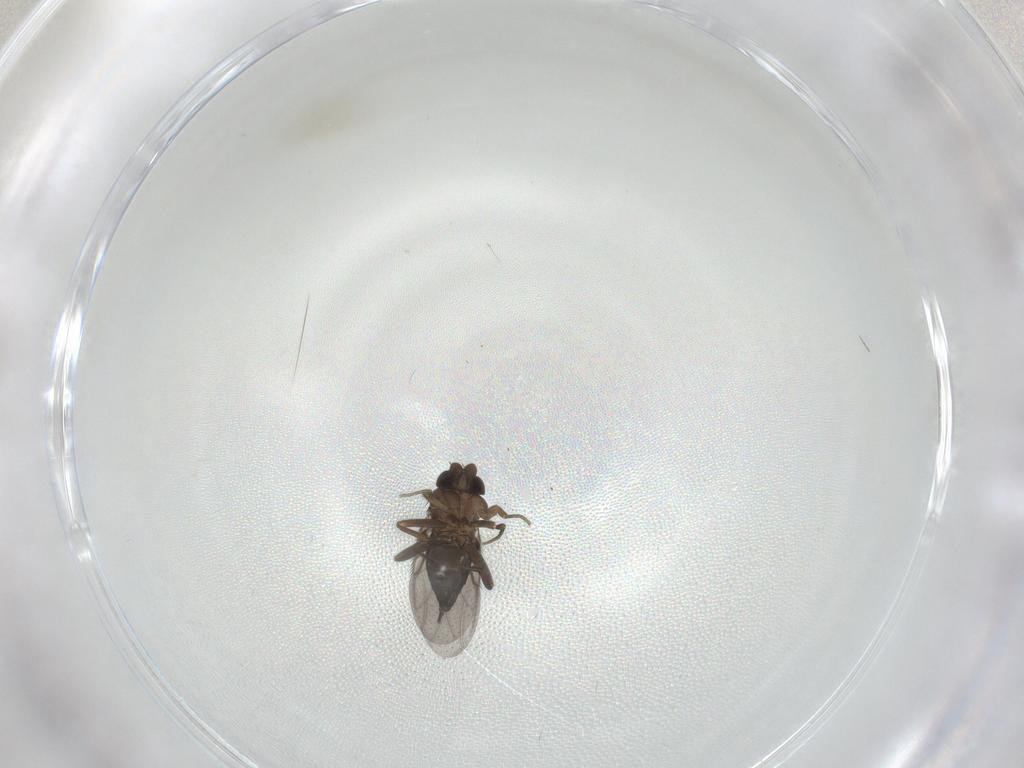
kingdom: Animalia
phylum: Arthropoda
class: Insecta
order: Diptera
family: Phoridae
